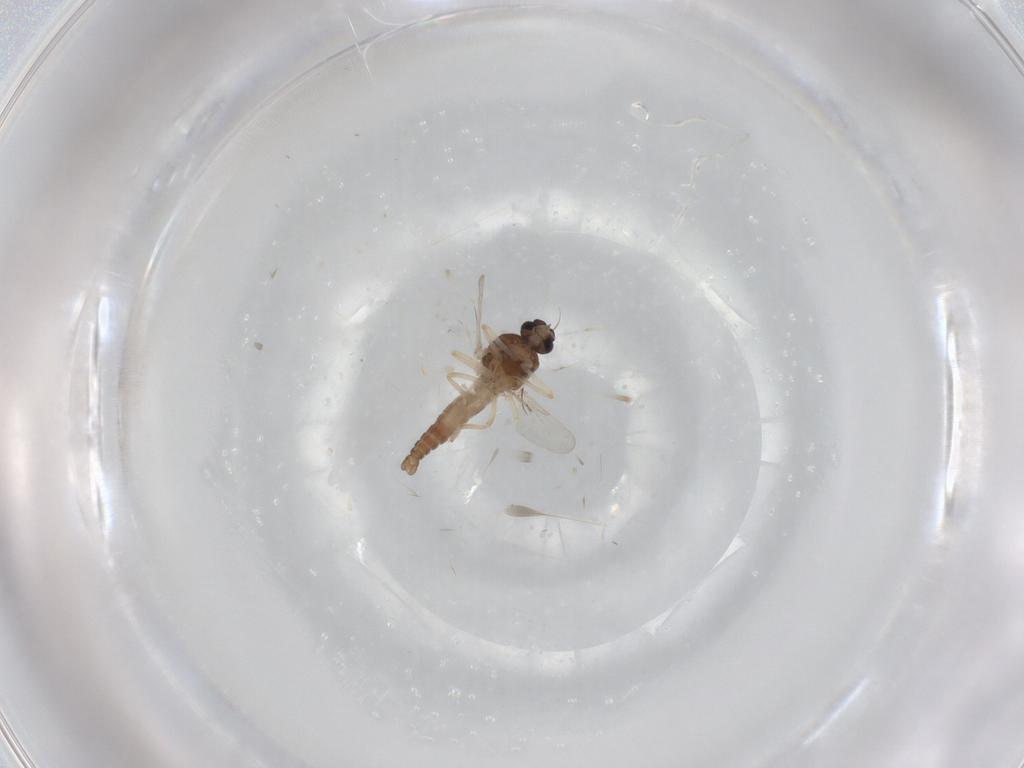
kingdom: Animalia
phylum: Arthropoda
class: Insecta
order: Diptera
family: Ceratopogonidae
